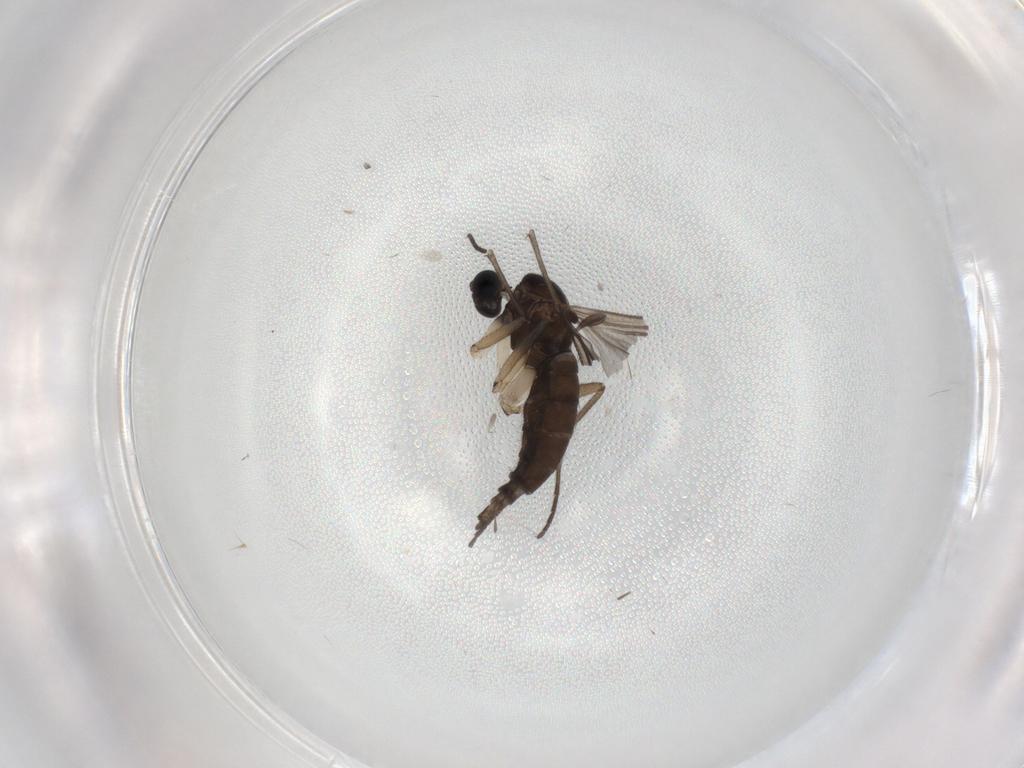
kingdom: Animalia
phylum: Arthropoda
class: Insecta
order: Diptera
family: Sciaridae
